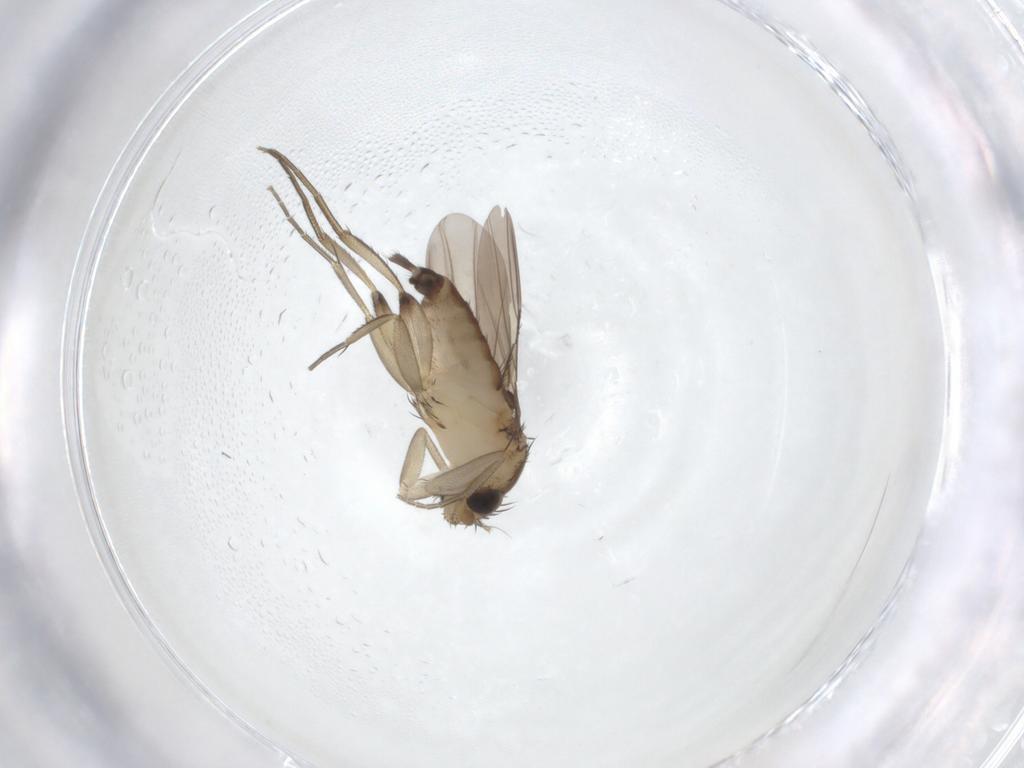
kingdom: Animalia
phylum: Arthropoda
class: Insecta
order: Diptera
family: Phoridae
